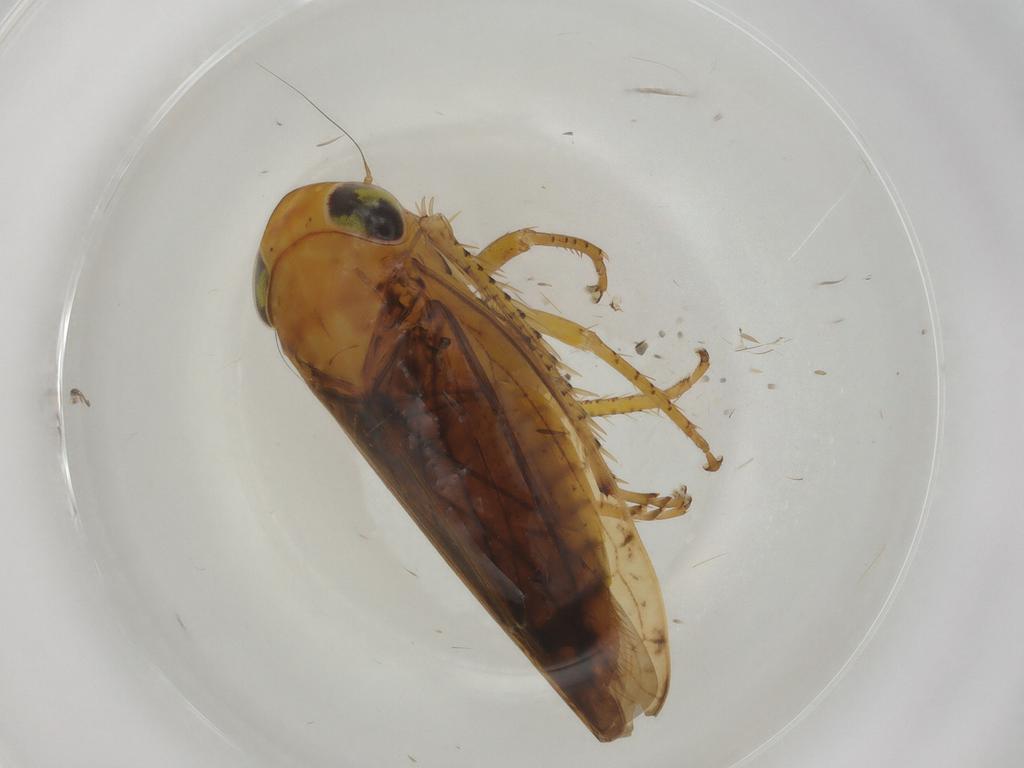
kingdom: Animalia
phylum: Arthropoda
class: Insecta
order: Hemiptera
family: Cicadellidae
